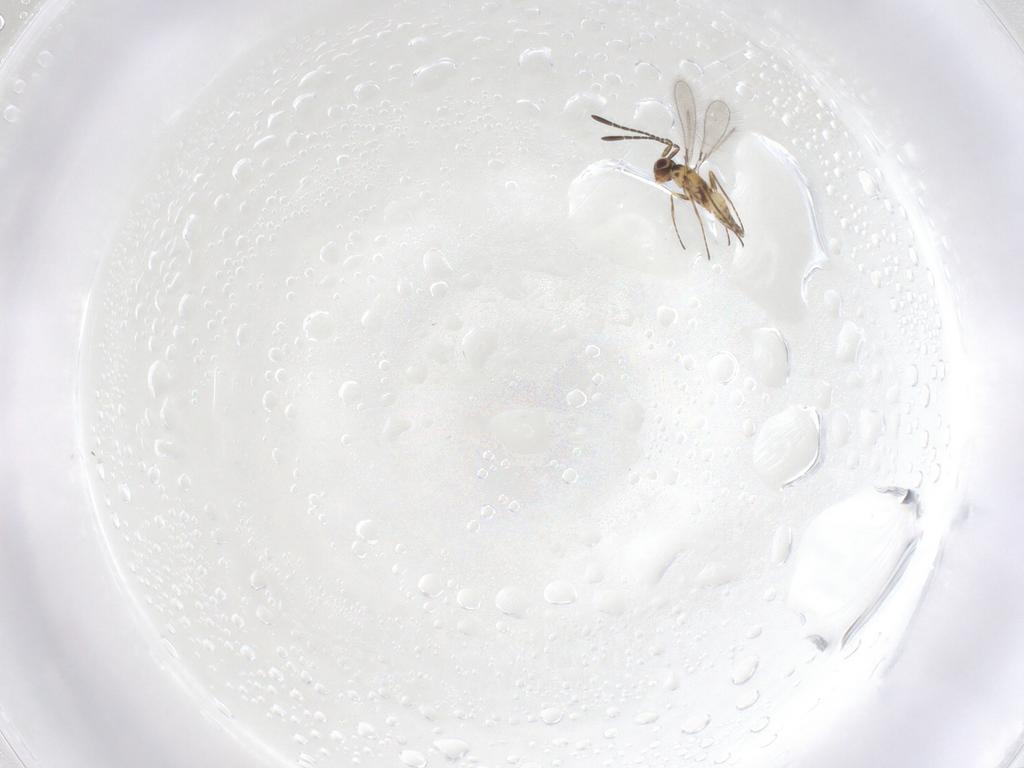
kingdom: Animalia
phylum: Arthropoda
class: Insecta
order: Hymenoptera
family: Mymaridae
